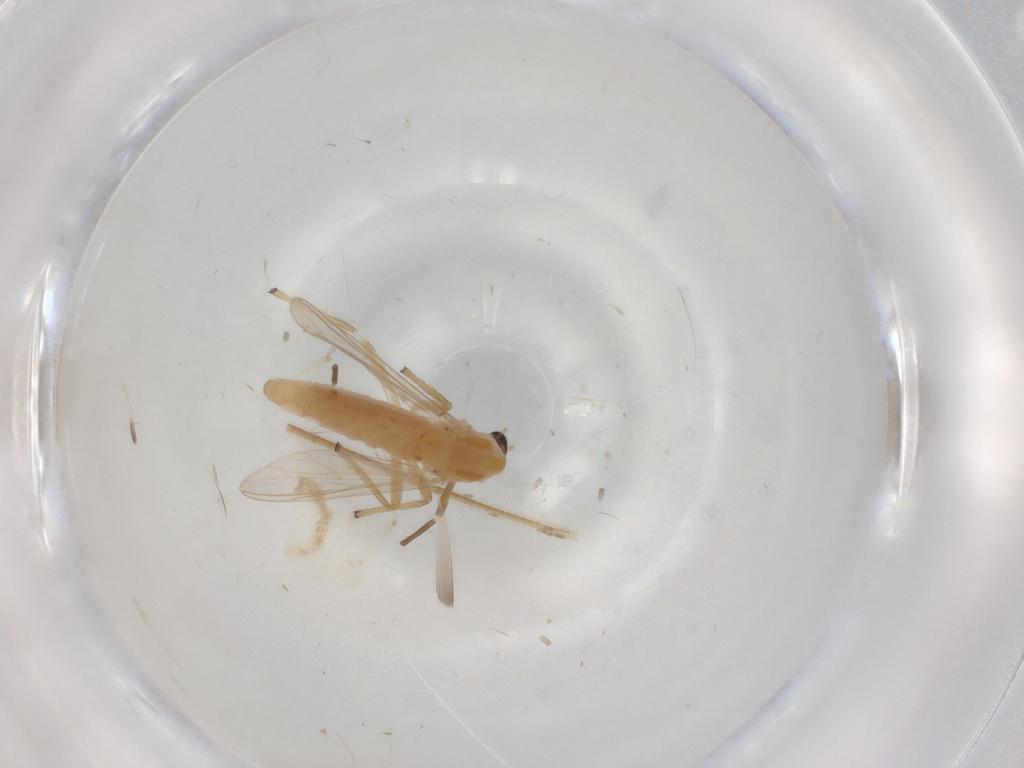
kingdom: Animalia
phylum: Arthropoda
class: Insecta
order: Diptera
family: Chironomidae
